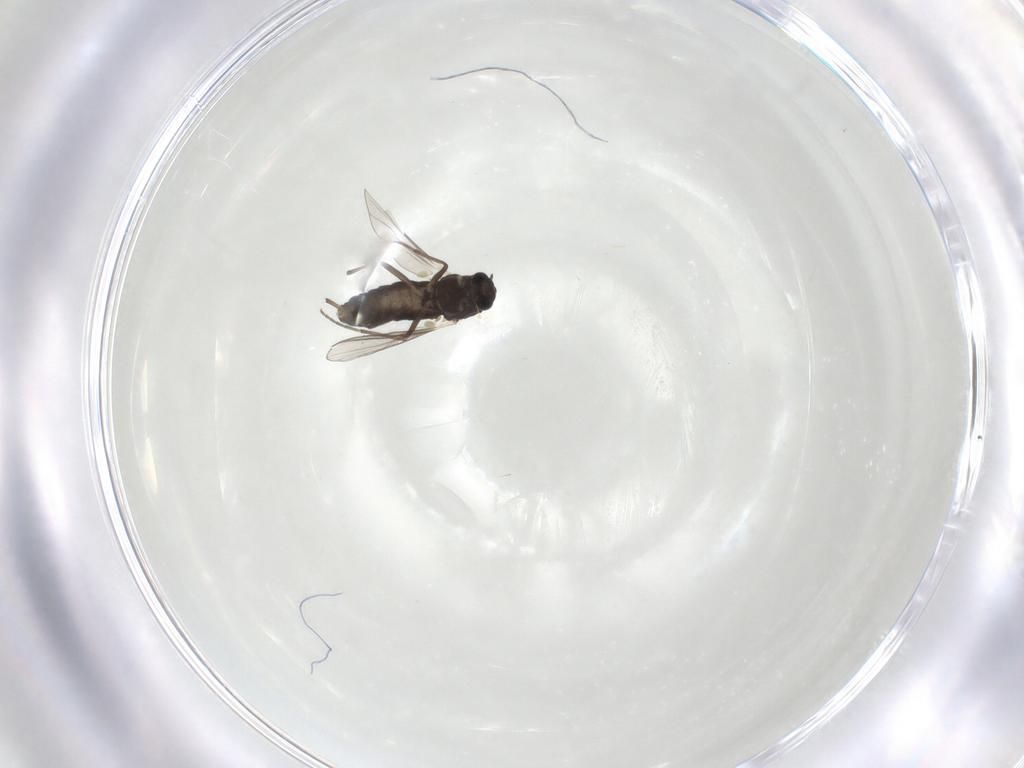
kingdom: Animalia
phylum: Arthropoda
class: Insecta
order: Diptera
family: Chironomidae
